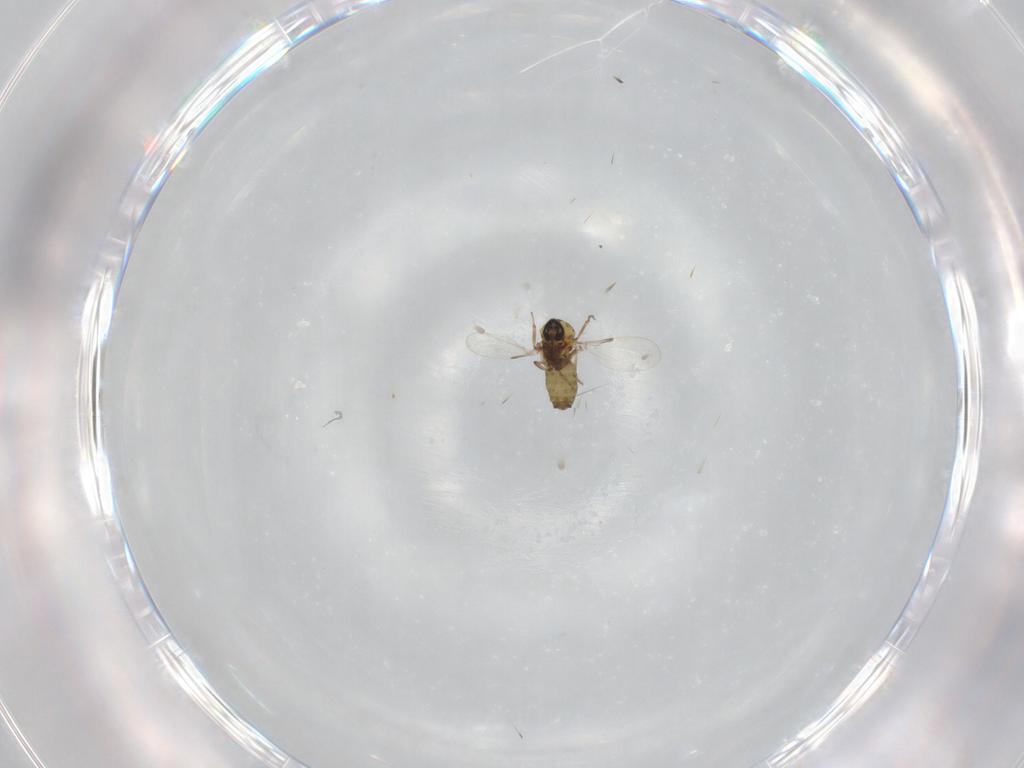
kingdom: Animalia
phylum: Arthropoda
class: Insecta
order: Diptera
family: Ceratopogonidae
